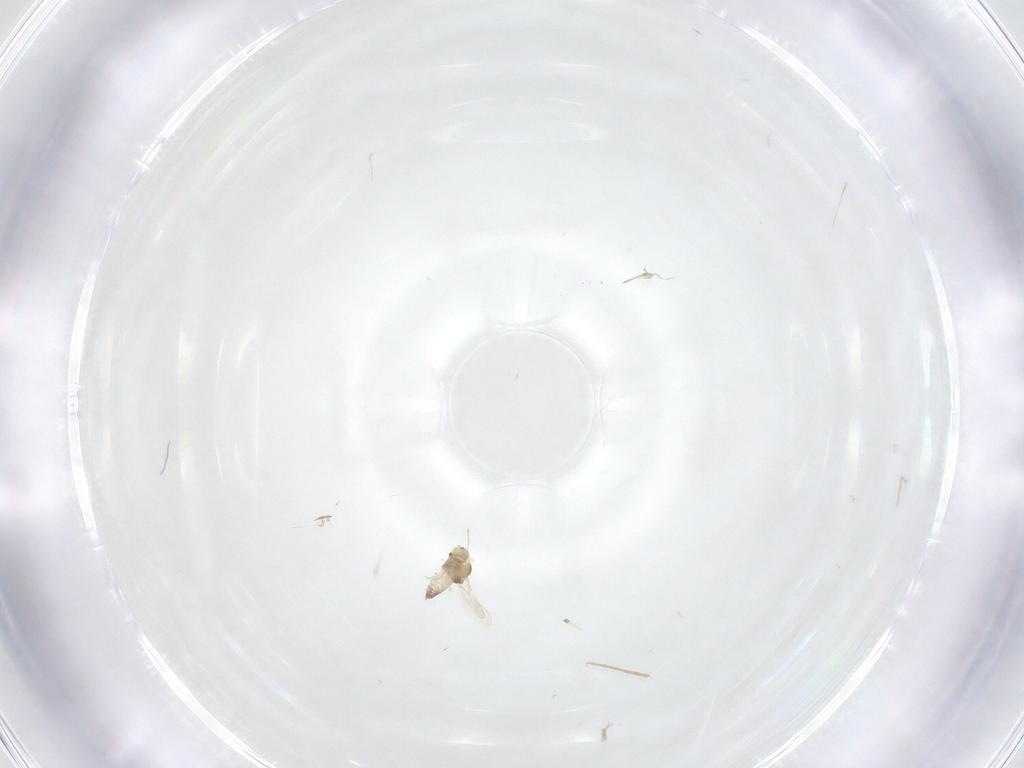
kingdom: Animalia
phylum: Arthropoda
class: Insecta
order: Diptera
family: Chironomidae
